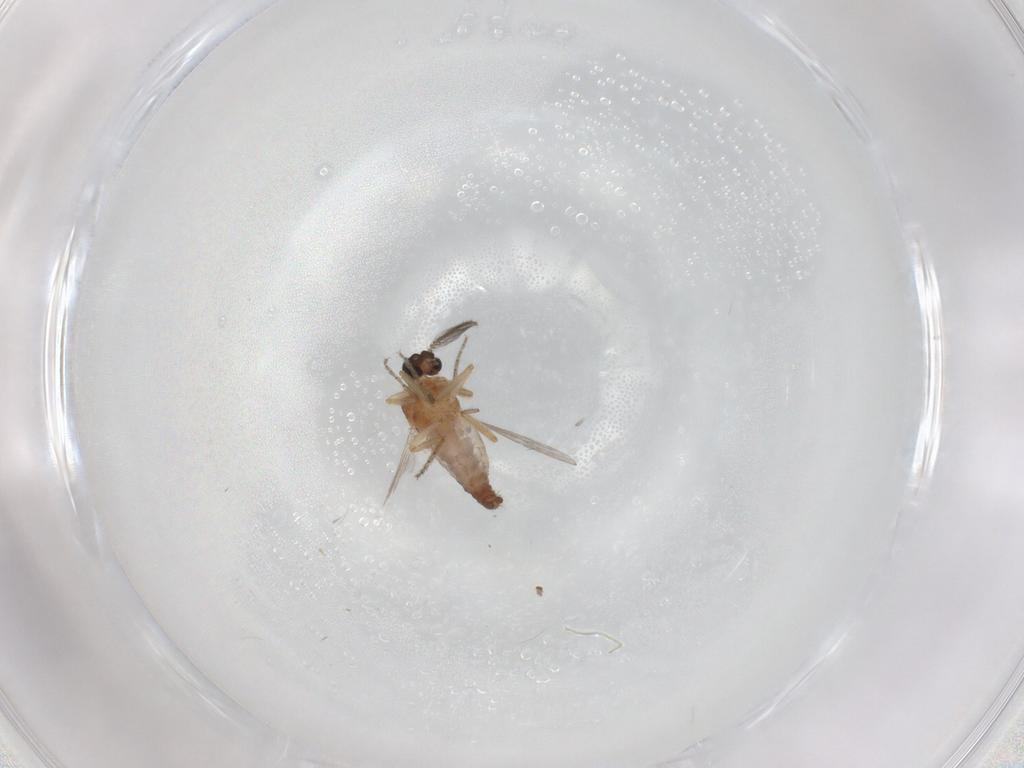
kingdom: Animalia
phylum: Arthropoda
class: Insecta
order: Diptera
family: Ceratopogonidae
